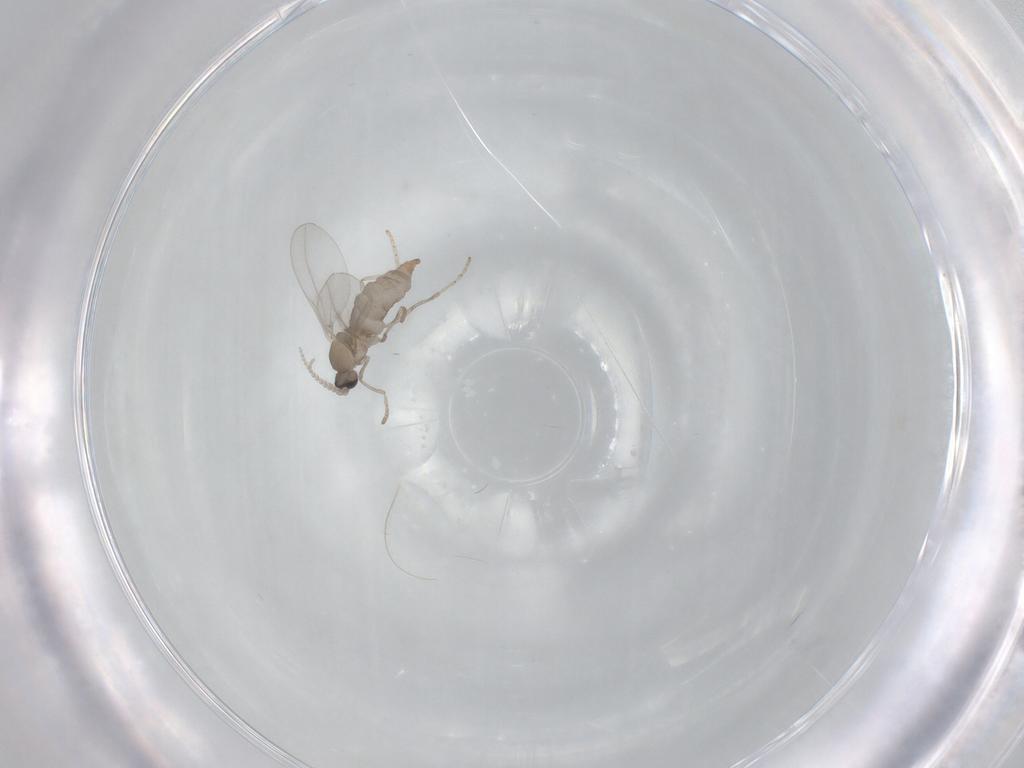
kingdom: Animalia
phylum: Arthropoda
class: Insecta
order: Diptera
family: Cecidomyiidae
